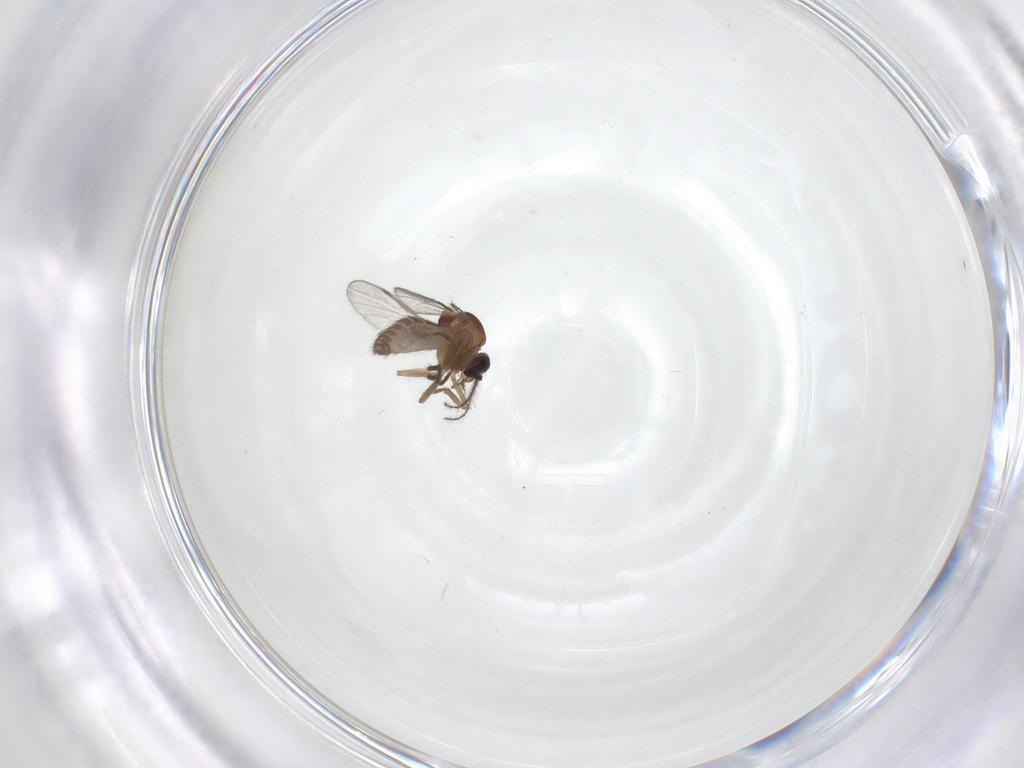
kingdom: Animalia
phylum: Arthropoda
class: Insecta
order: Diptera
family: Ceratopogonidae
